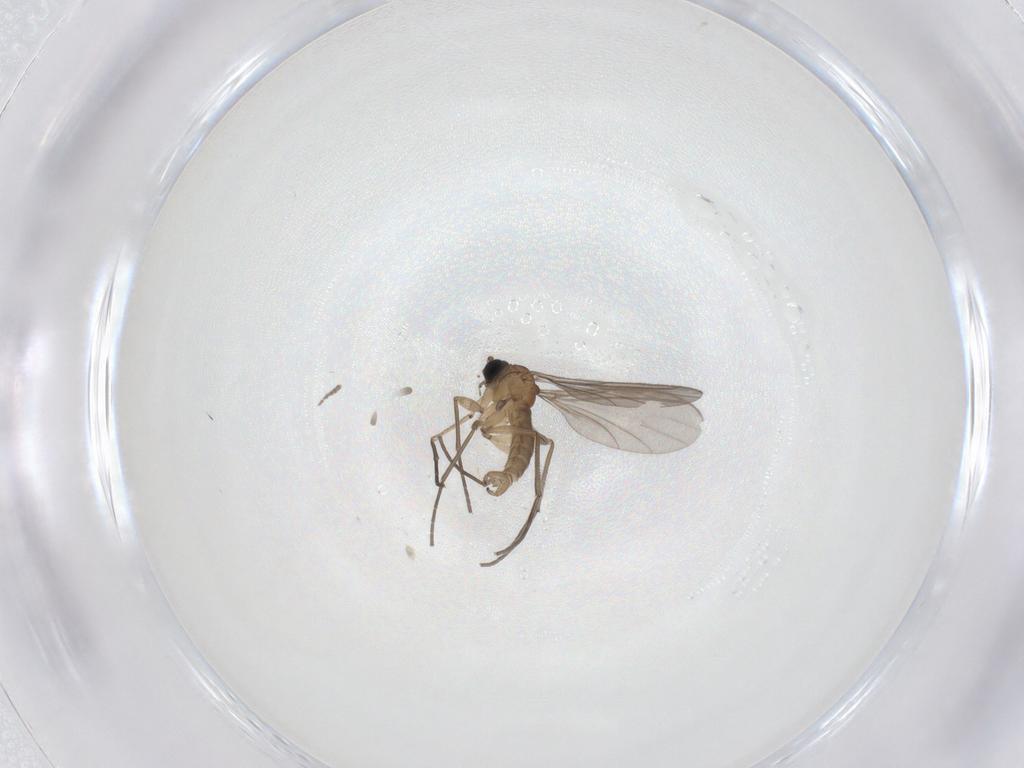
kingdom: Animalia
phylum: Arthropoda
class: Insecta
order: Diptera
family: Sciaridae
